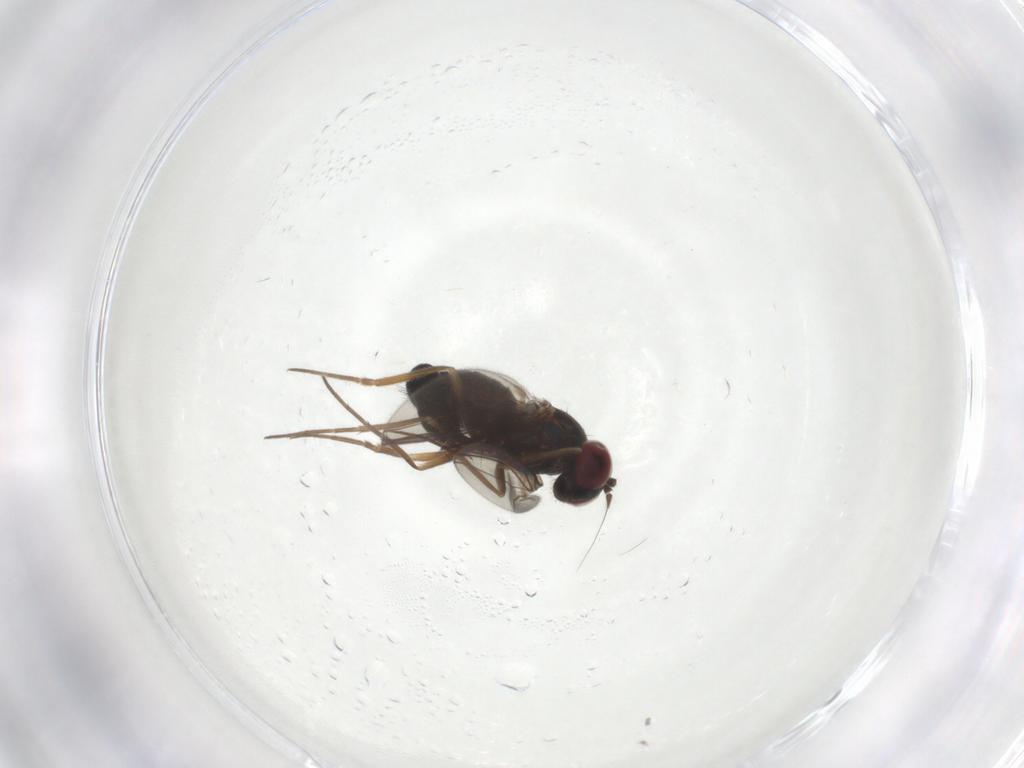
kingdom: Animalia
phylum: Arthropoda
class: Insecta
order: Diptera
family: Dolichopodidae
